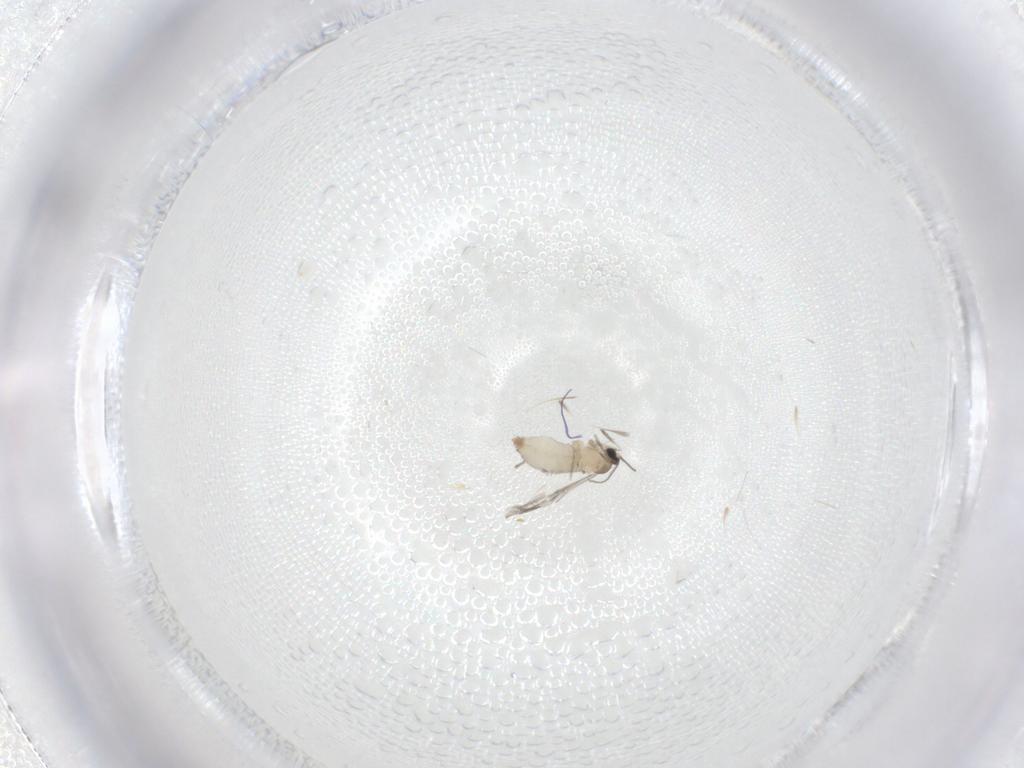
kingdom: Animalia
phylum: Arthropoda
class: Insecta
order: Diptera
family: Cecidomyiidae
